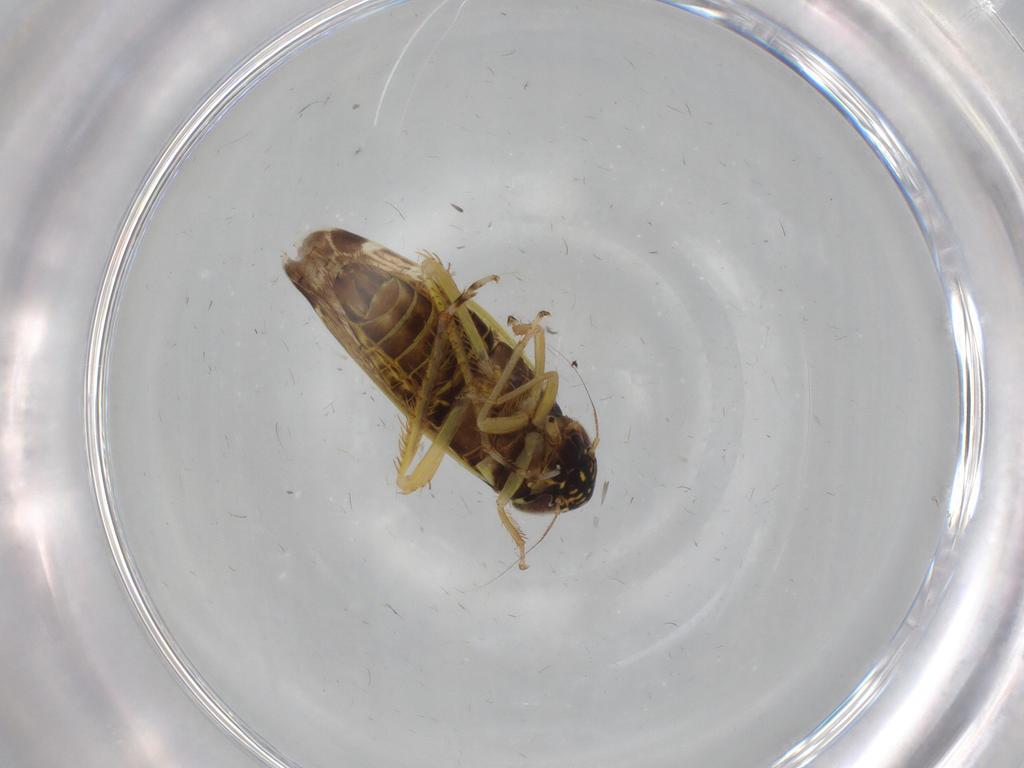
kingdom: Animalia
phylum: Arthropoda
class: Insecta
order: Hemiptera
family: Cicadellidae
